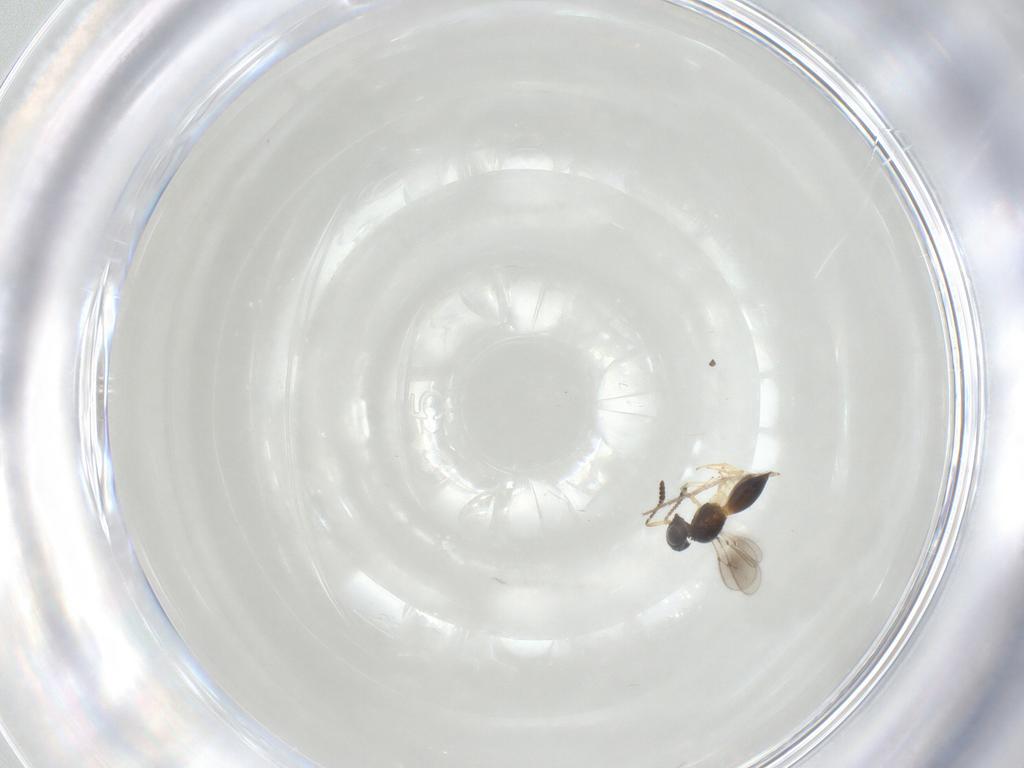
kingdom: Animalia
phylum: Arthropoda
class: Insecta
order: Hymenoptera
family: Scelionidae
